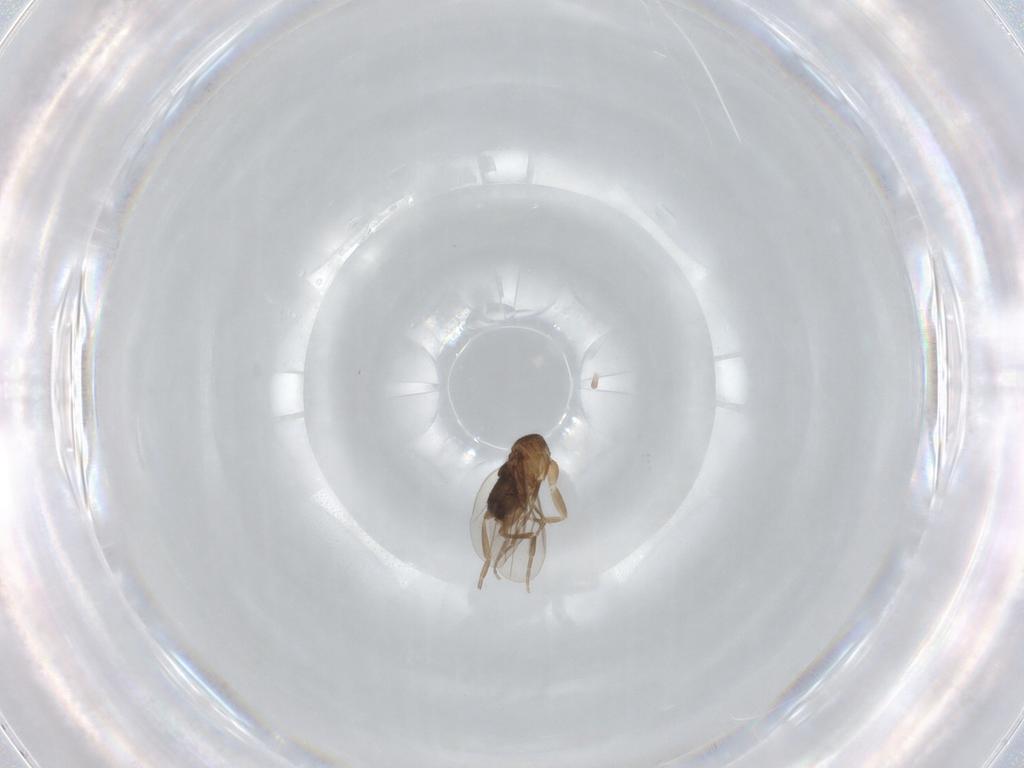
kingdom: Animalia
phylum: Arthropoda
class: Insecta
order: Diptera
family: Phoridae
